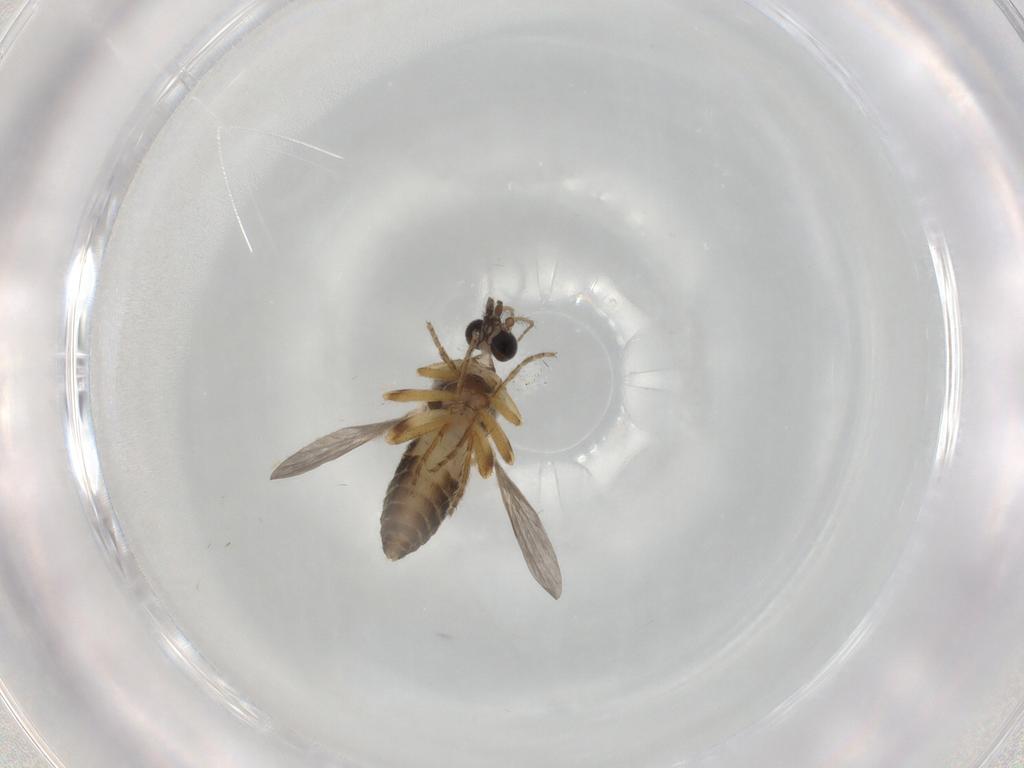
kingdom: Animalia
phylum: Arthropoda
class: Insecta
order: Diptera
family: Ceratopogonidae
